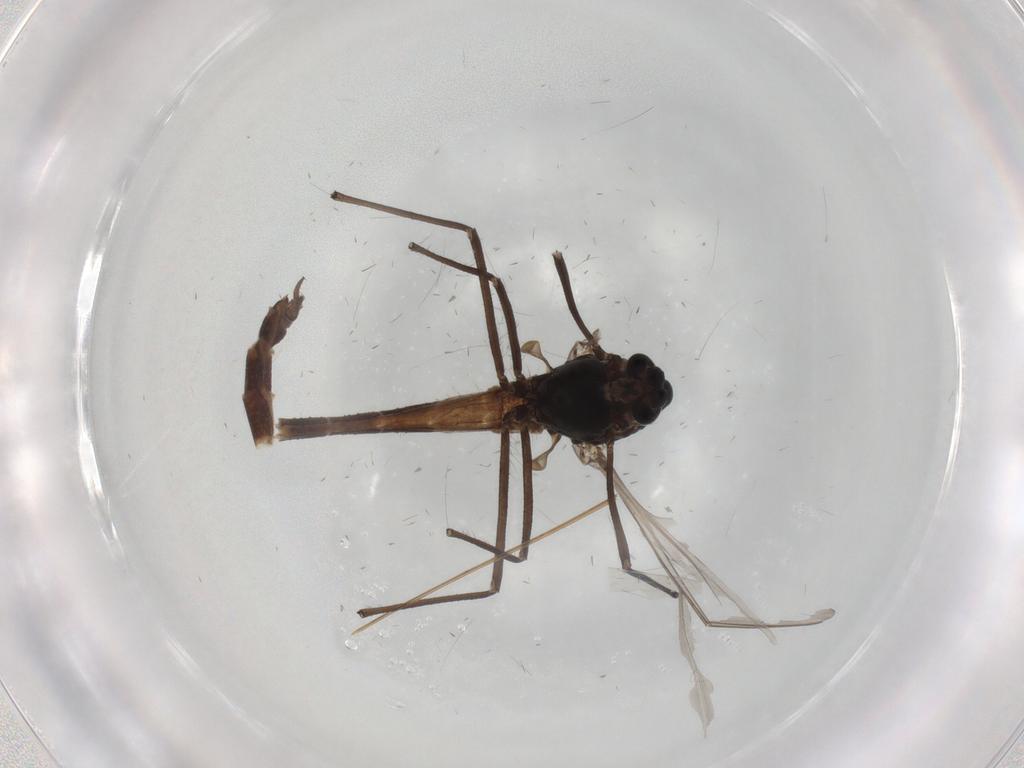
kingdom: Animalia
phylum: Arthropoda
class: Insecta
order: Diptera
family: Chironomidae
